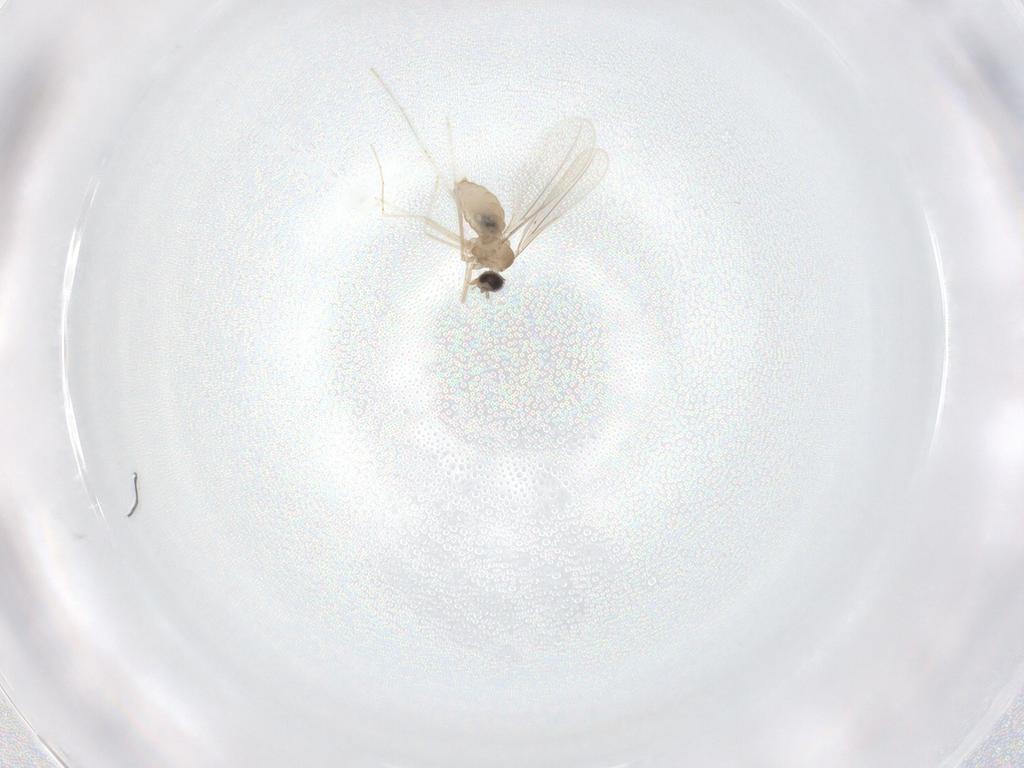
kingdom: Animalia
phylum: Arthropoda
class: Insecta
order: Diptera
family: Cecidomyiidae
